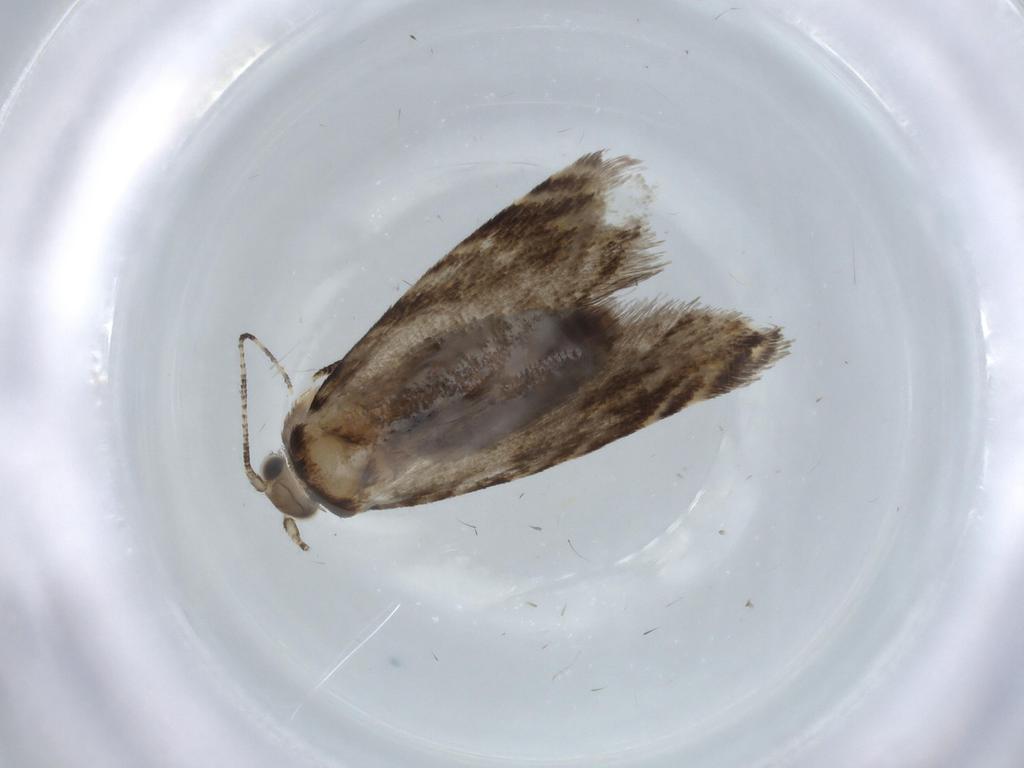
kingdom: Animalia
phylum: Arthropoda
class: Insecta
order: Lepidoptera
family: Tineidae
